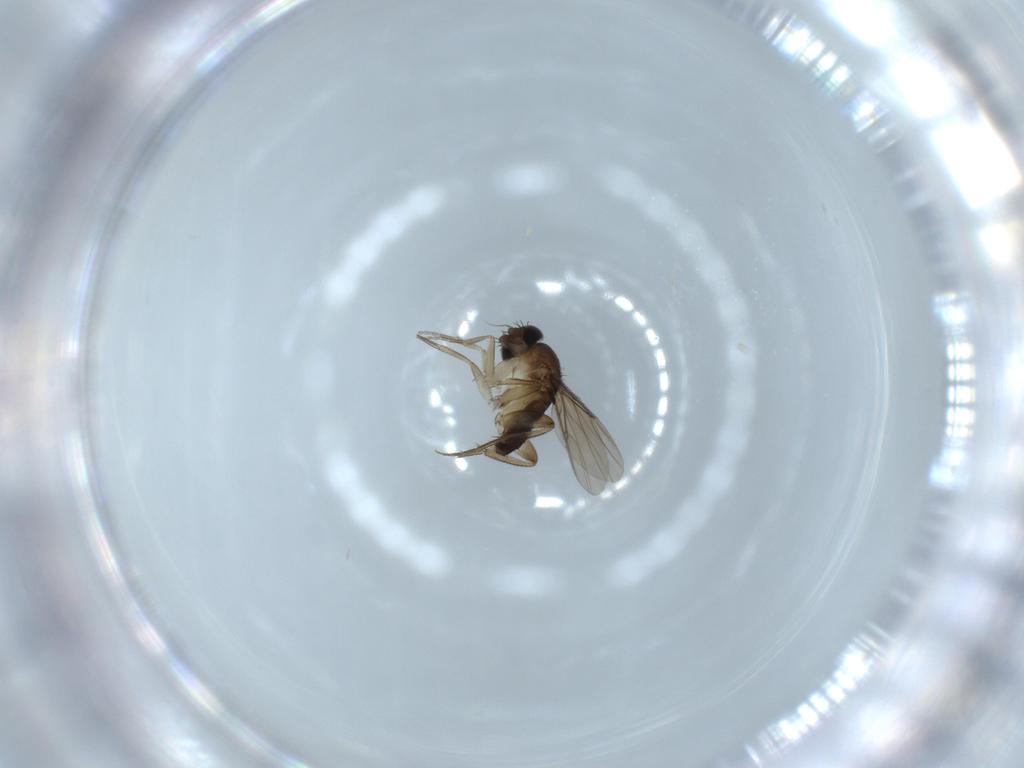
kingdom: Animalia
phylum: Arthropoda
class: Insecta
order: Diptera
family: Phoridae
